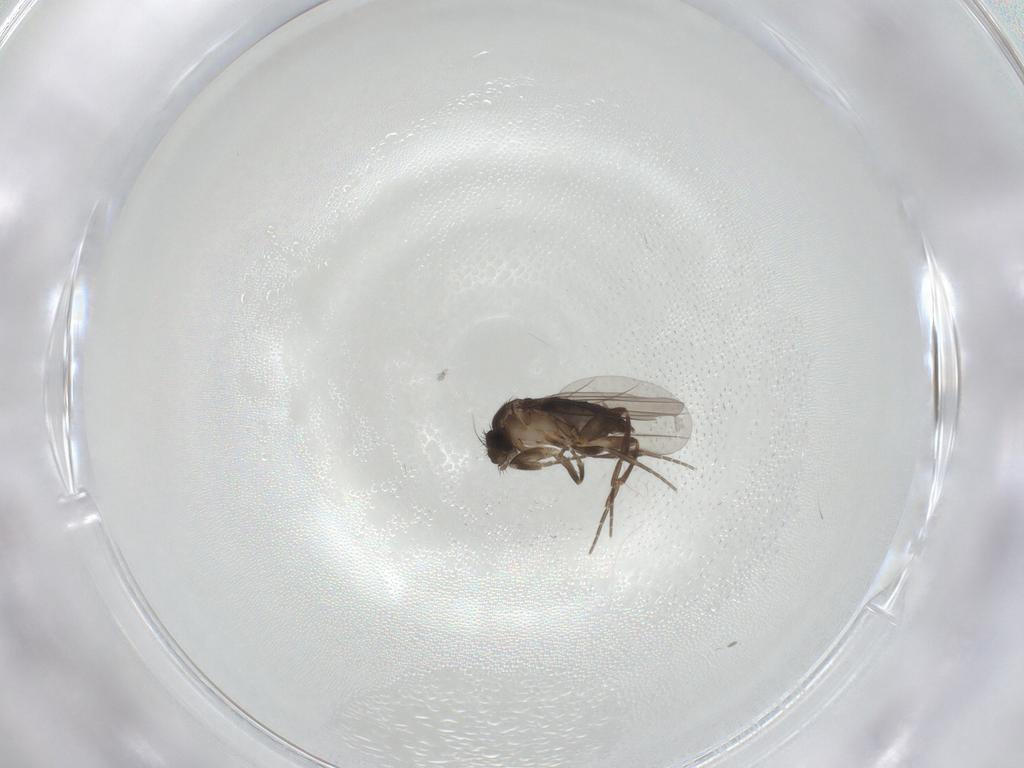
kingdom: Animalia
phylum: Arthropoda
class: Insecta
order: Diptera
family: Phoridae
